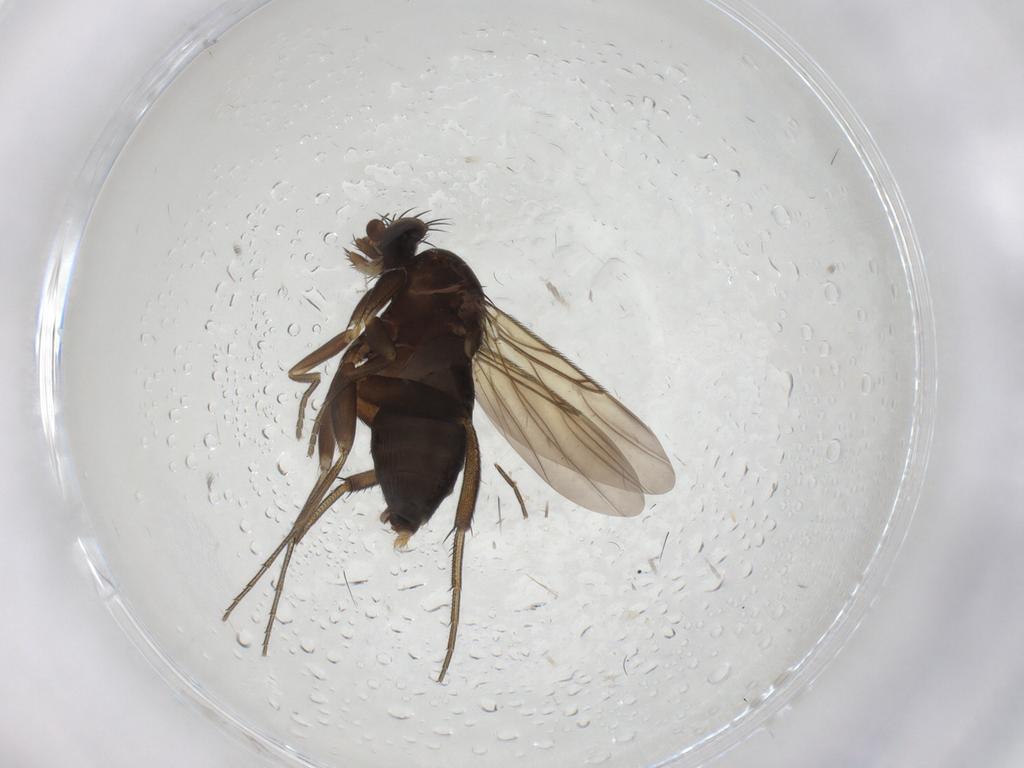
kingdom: Animalia
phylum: Arthropoda
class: Insecta
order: Diptera
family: Phoridae
